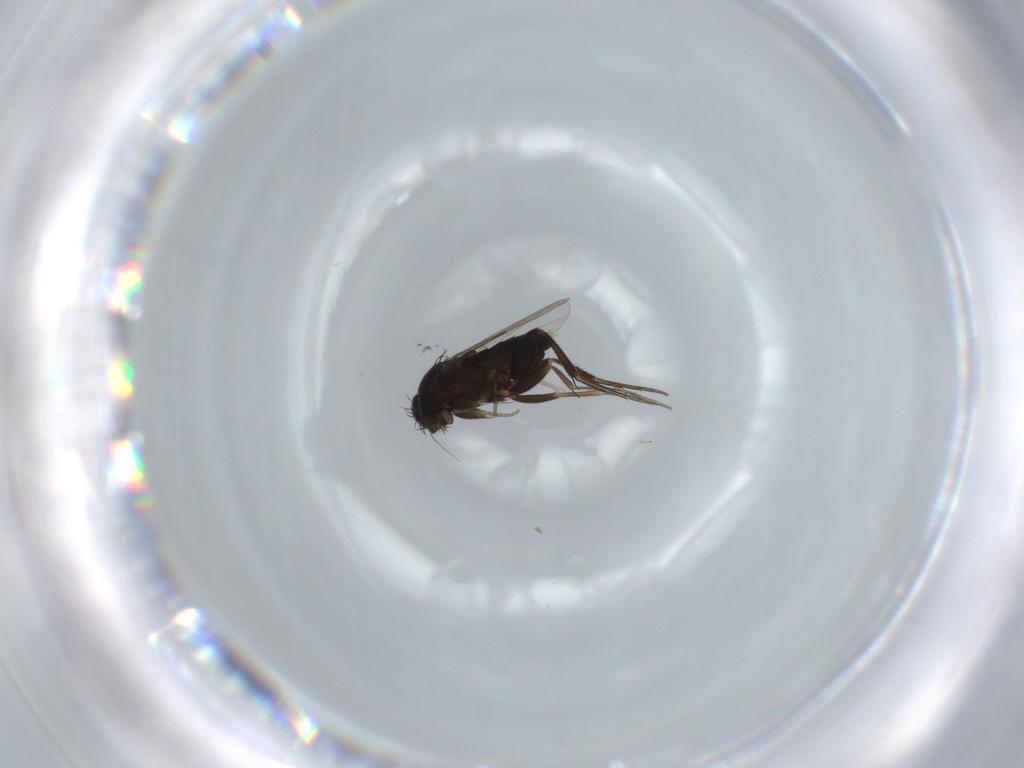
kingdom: Animalia
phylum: Arthropoda
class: Insecta
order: Diptera
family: Phoridae
